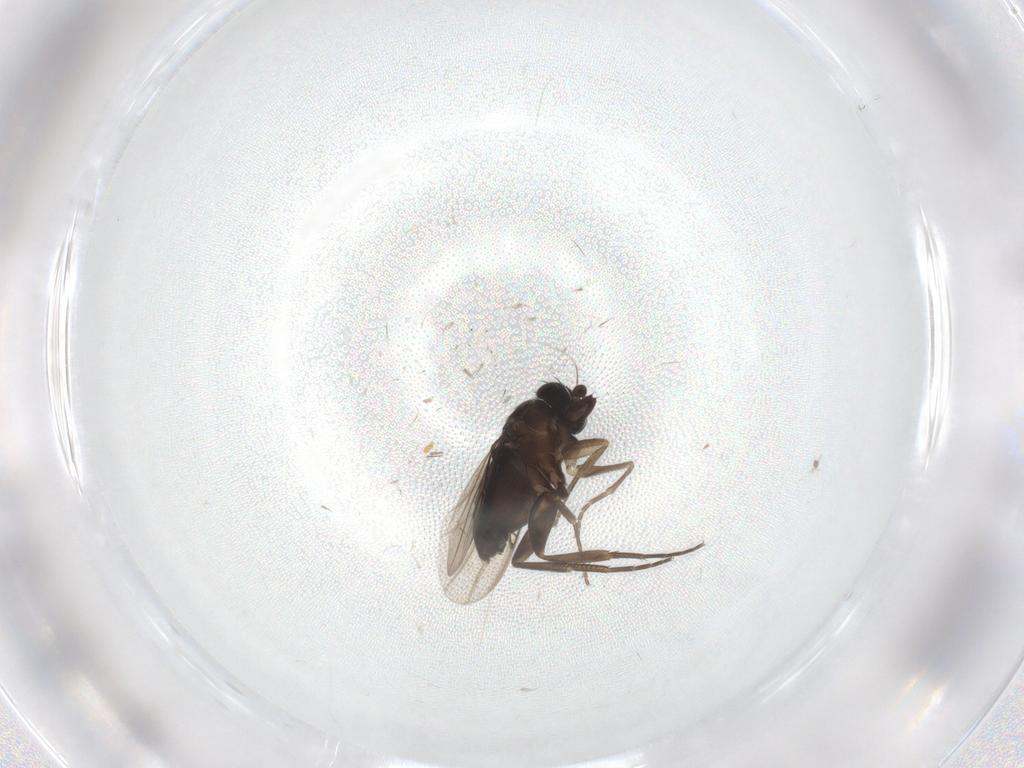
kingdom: Animalia
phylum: Arthropoda
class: Insecta
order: Diptera
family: Phoridae
